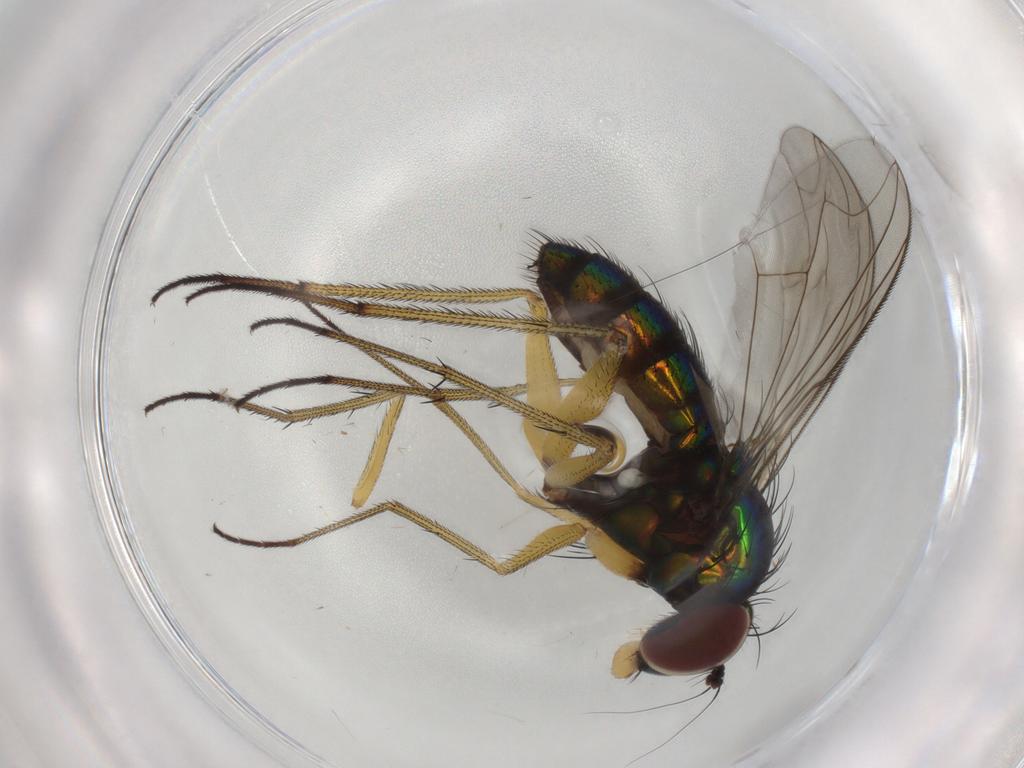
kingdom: Animalia
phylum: Arthropoda
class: Insecta
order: Diptera
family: Dolichopodidae
